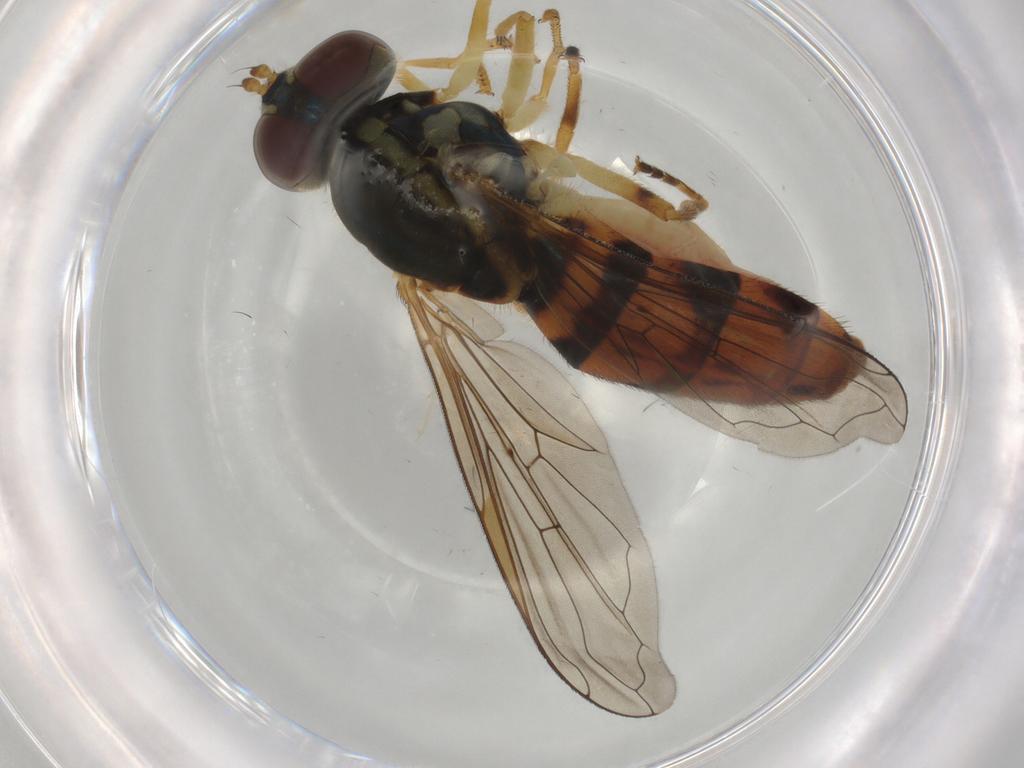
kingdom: Animalia
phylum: Arthropoda
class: Insecta
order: Diptera
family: Syrphidae
